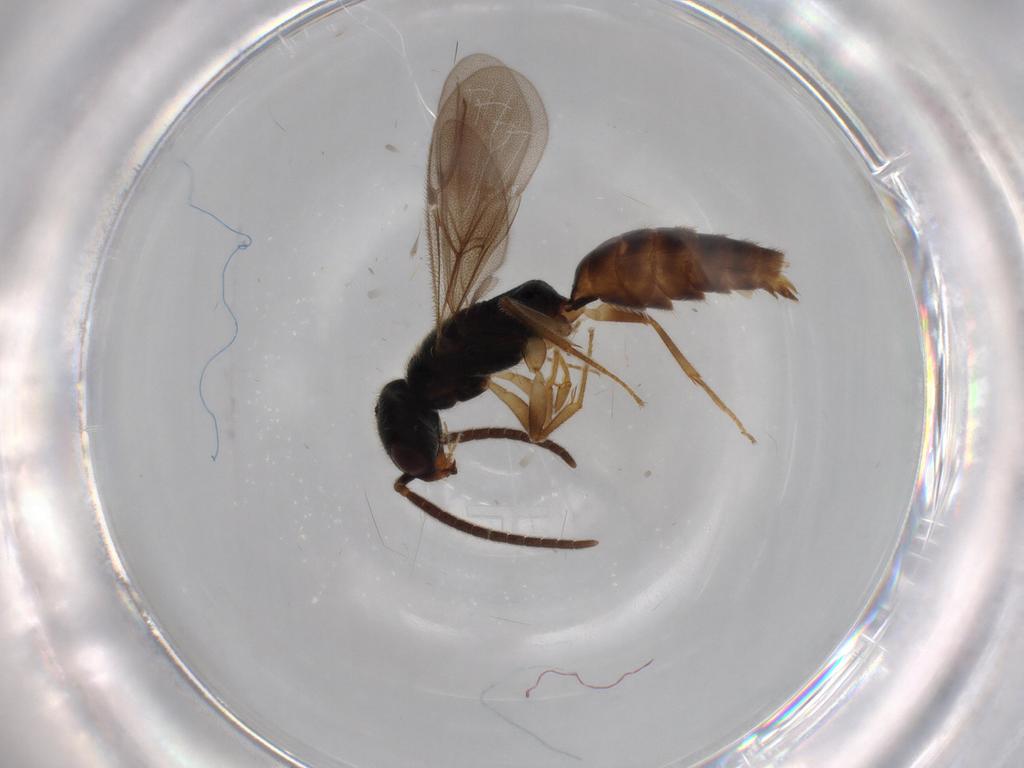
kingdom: Animalia
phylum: Arthropoda
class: Insecta
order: Hymenoptera
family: Bethylidae
